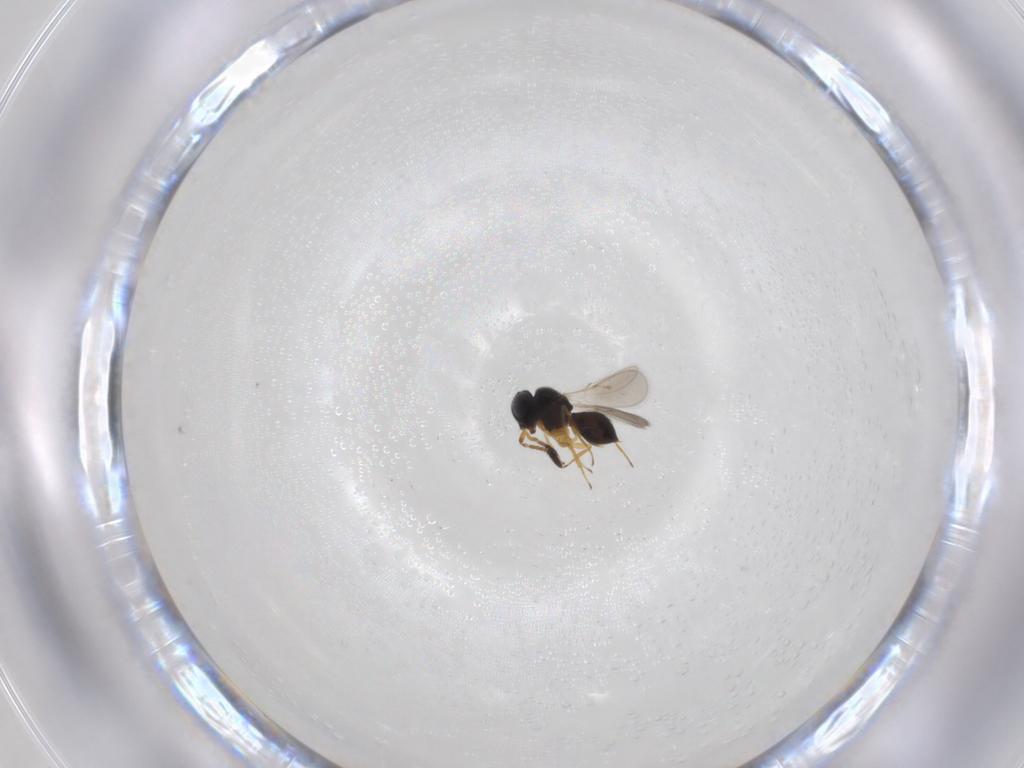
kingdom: Animalia
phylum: Arthropoda
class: Insecta
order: Hymenoptera
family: Scelionidae
